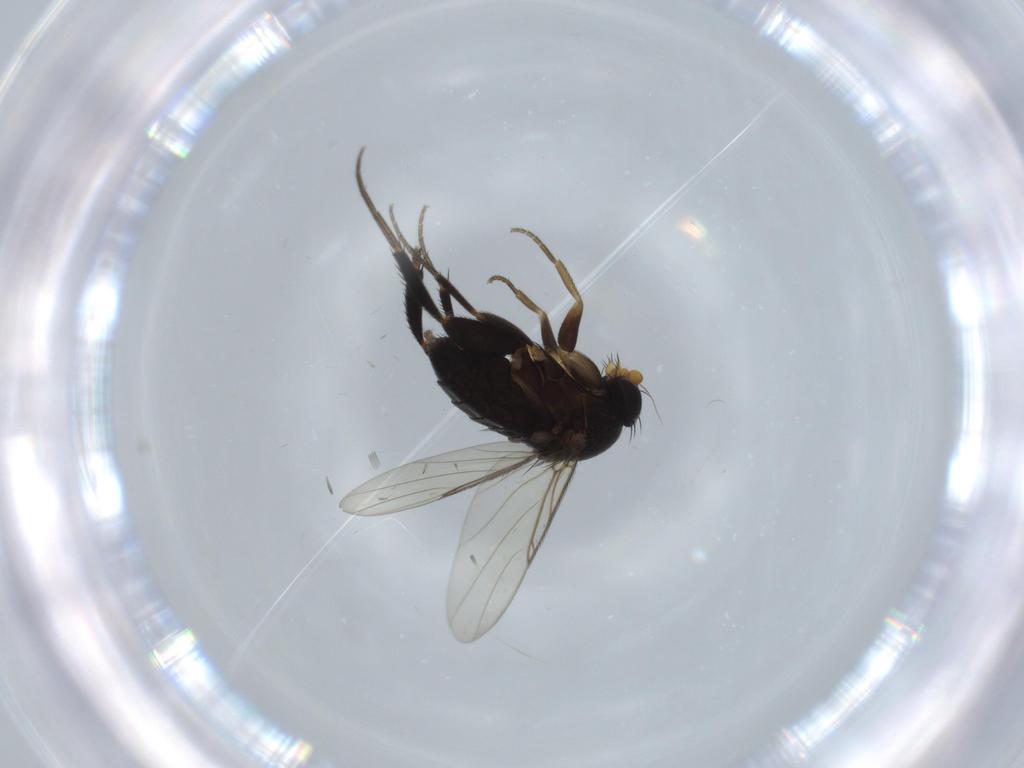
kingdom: Animalia
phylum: Arthropoda
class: Insecta
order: Diptera
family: Phoridae
